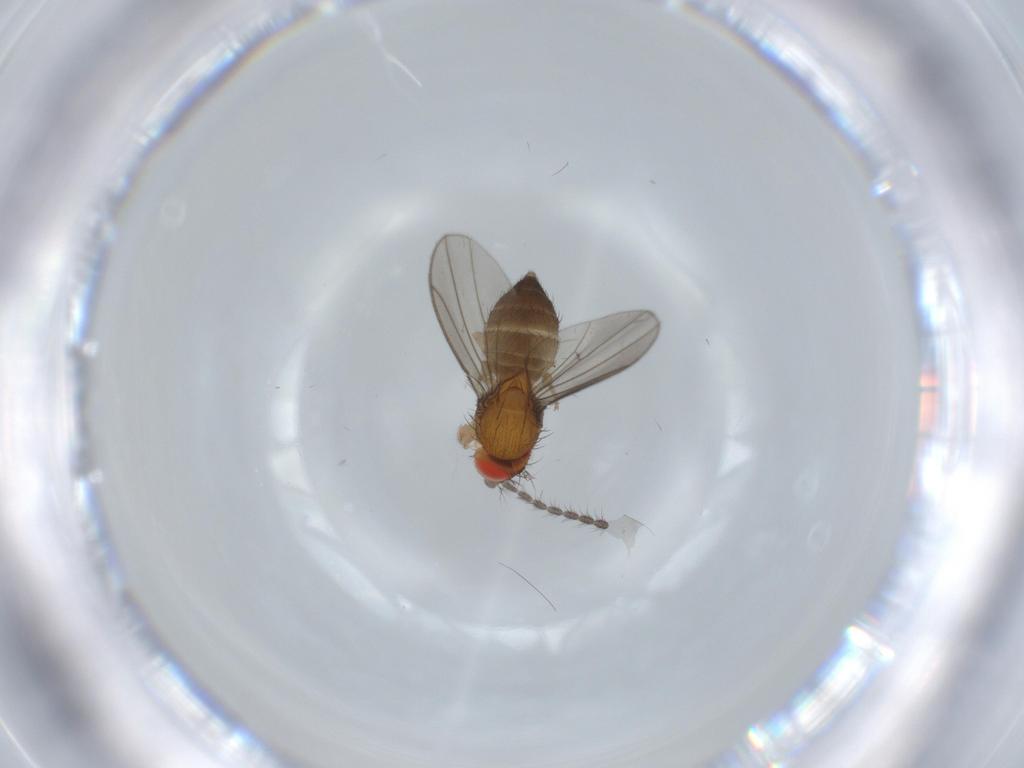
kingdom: Animalia
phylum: Arthropoda
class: Insecta
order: Diptera
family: Drosophilidae
